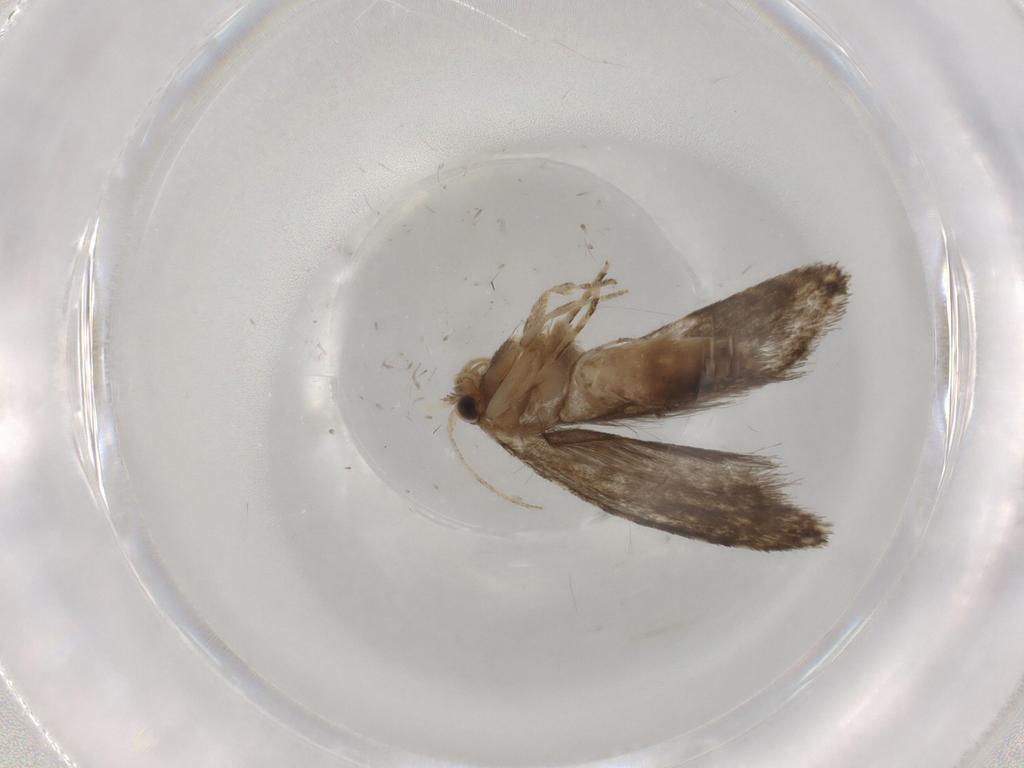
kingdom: Animalia
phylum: Arthropoda
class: Insecta
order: Lepidoptera
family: Tineidae
